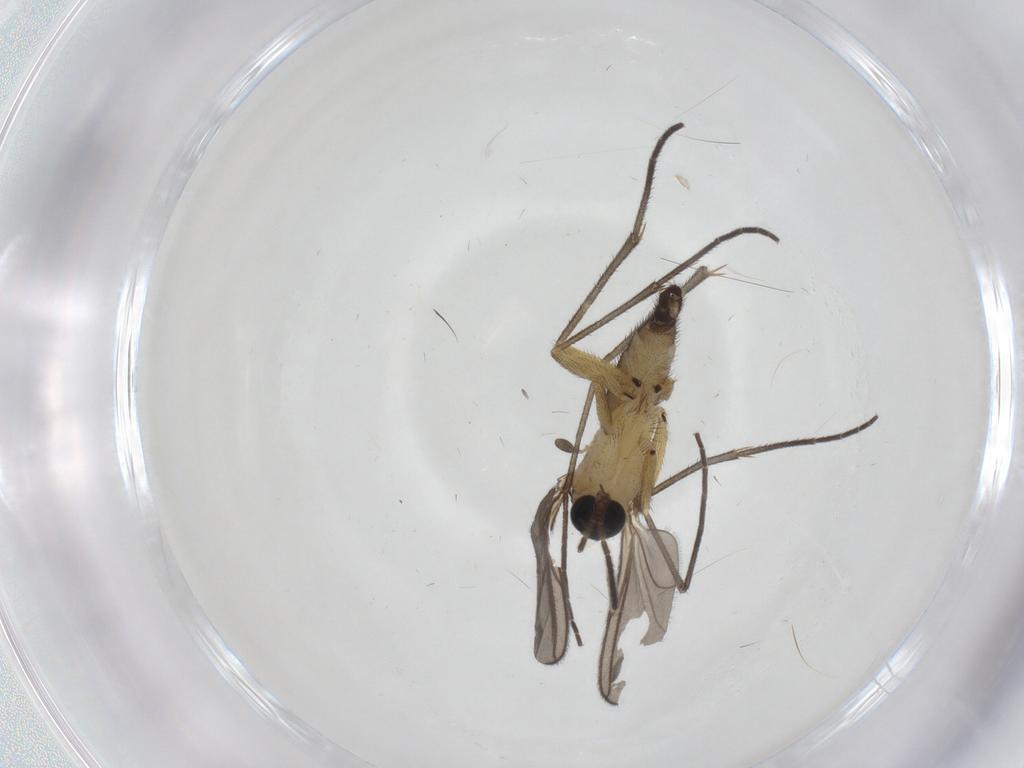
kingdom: Animalia
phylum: Arthropoda
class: Insecta
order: Diptera
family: Sciaridae
